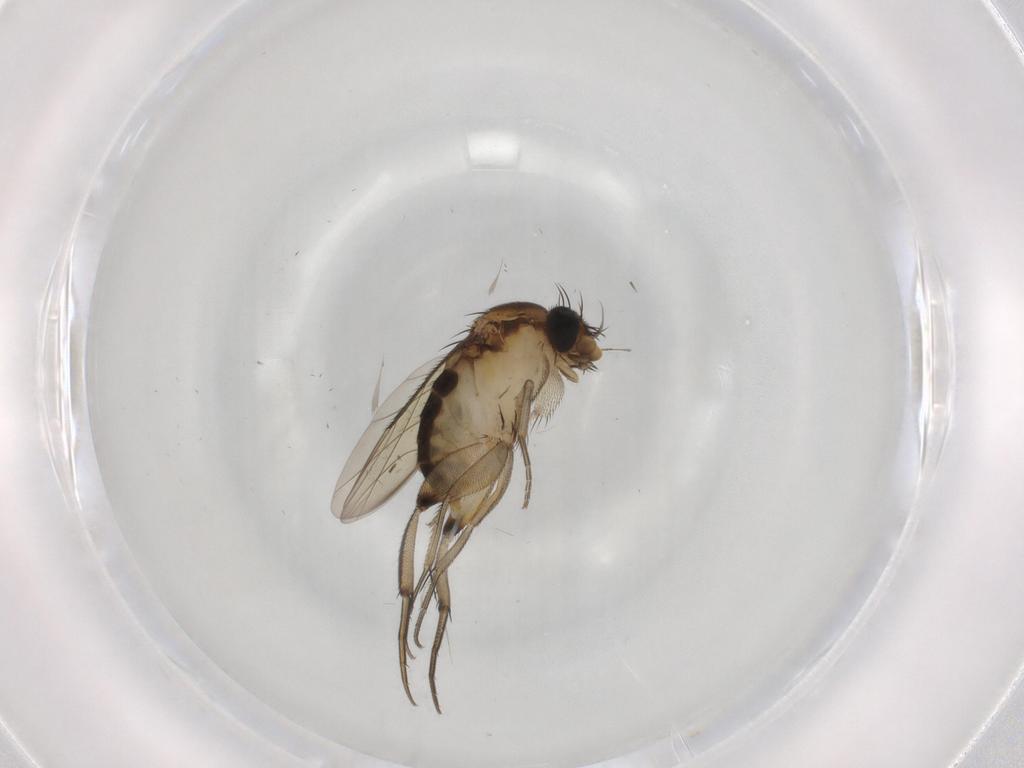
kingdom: Animalia
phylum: Arthropoda
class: Insecta
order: Diptera
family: Phoridae
